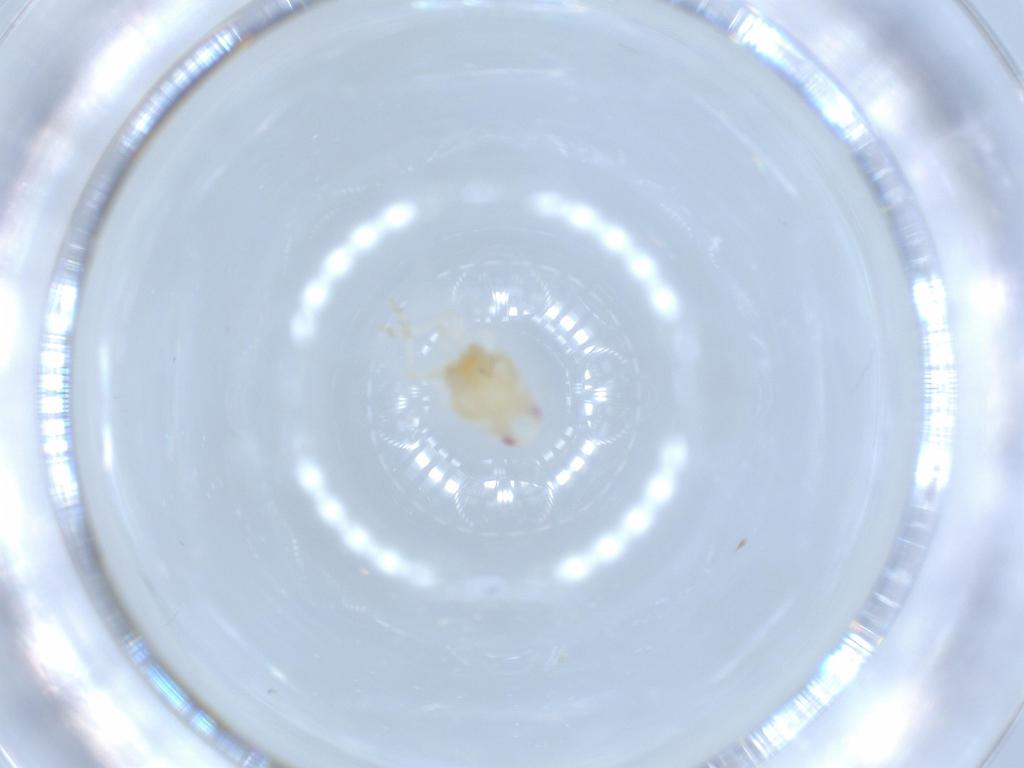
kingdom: Animalia
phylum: Arthropoda
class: Insecta
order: Hemiptera
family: Flatidae
